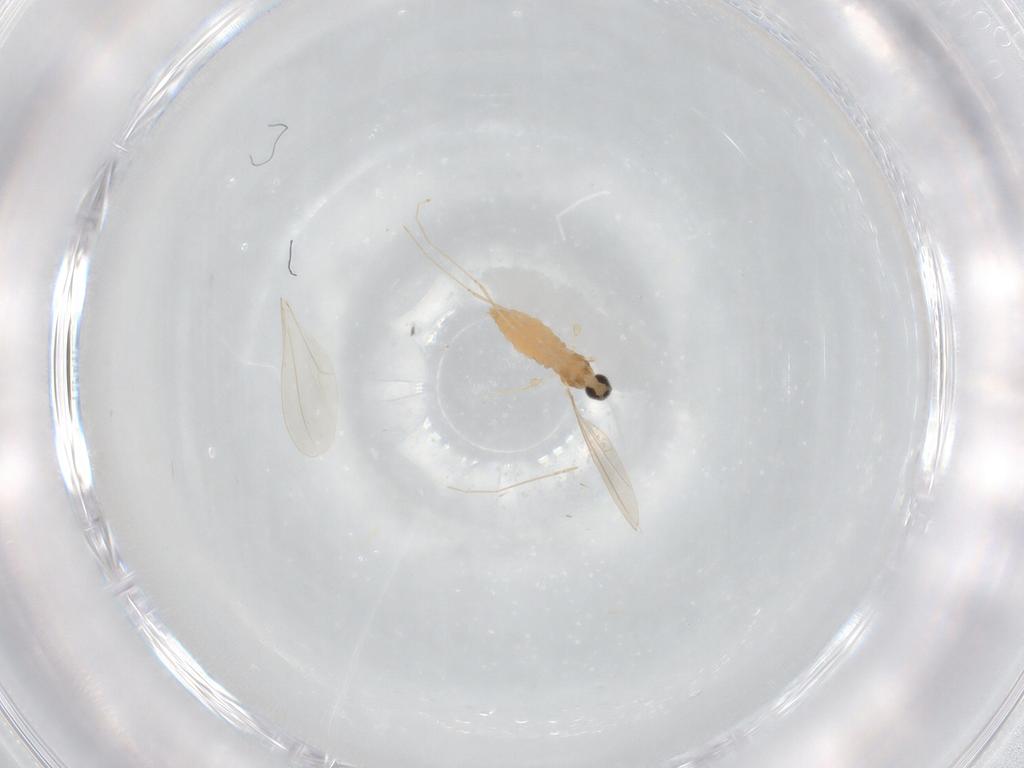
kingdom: Animalia
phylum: Arthropoda
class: Insecta
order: Diptera
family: Cecidomyiidae
